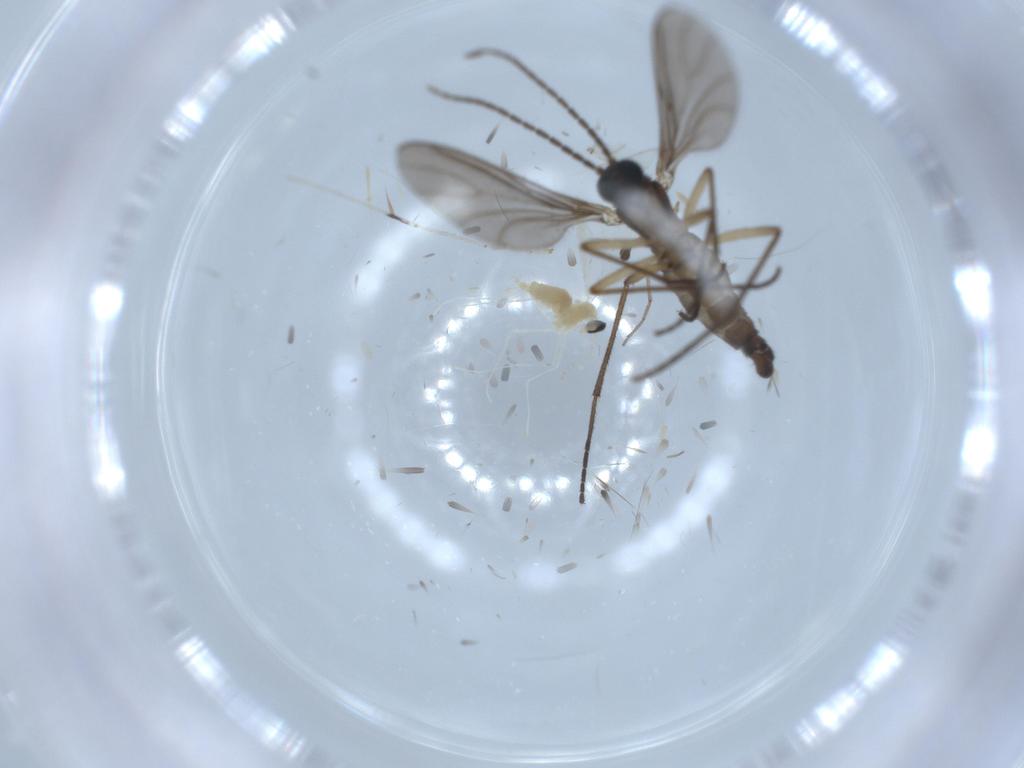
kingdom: Animalia
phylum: Arthropoda
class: Insecta
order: Diptera
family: Cecidomyiidae
